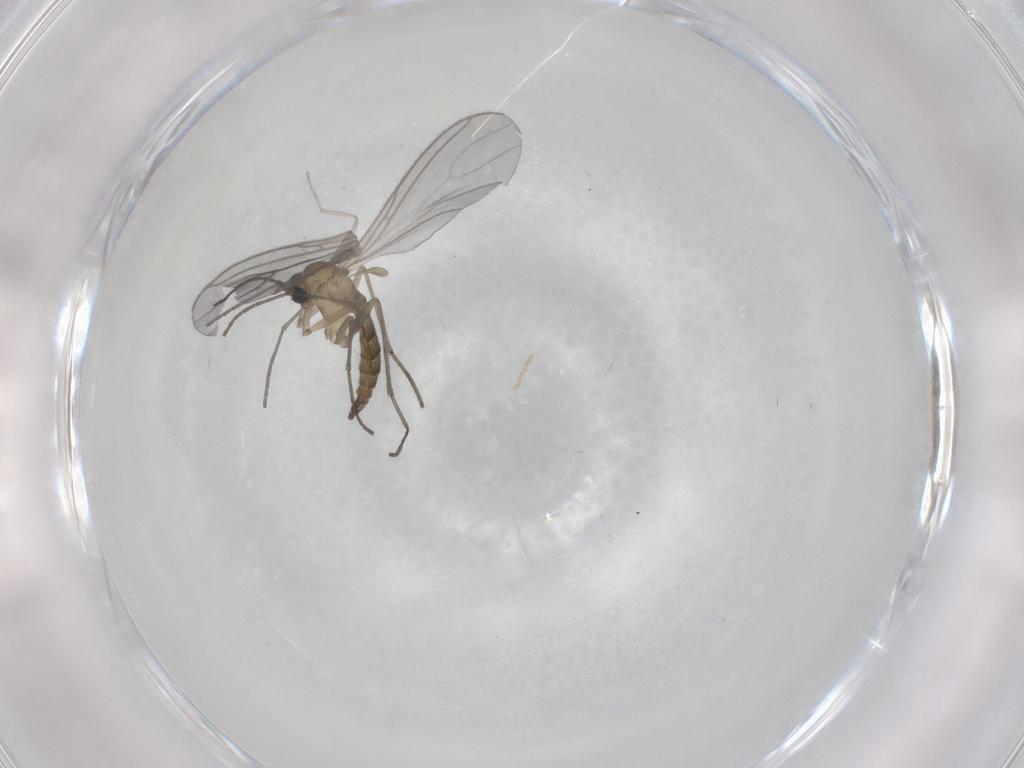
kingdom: Animalia
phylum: Arthropoda
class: Insecta
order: Diptera
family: Sciaridae
